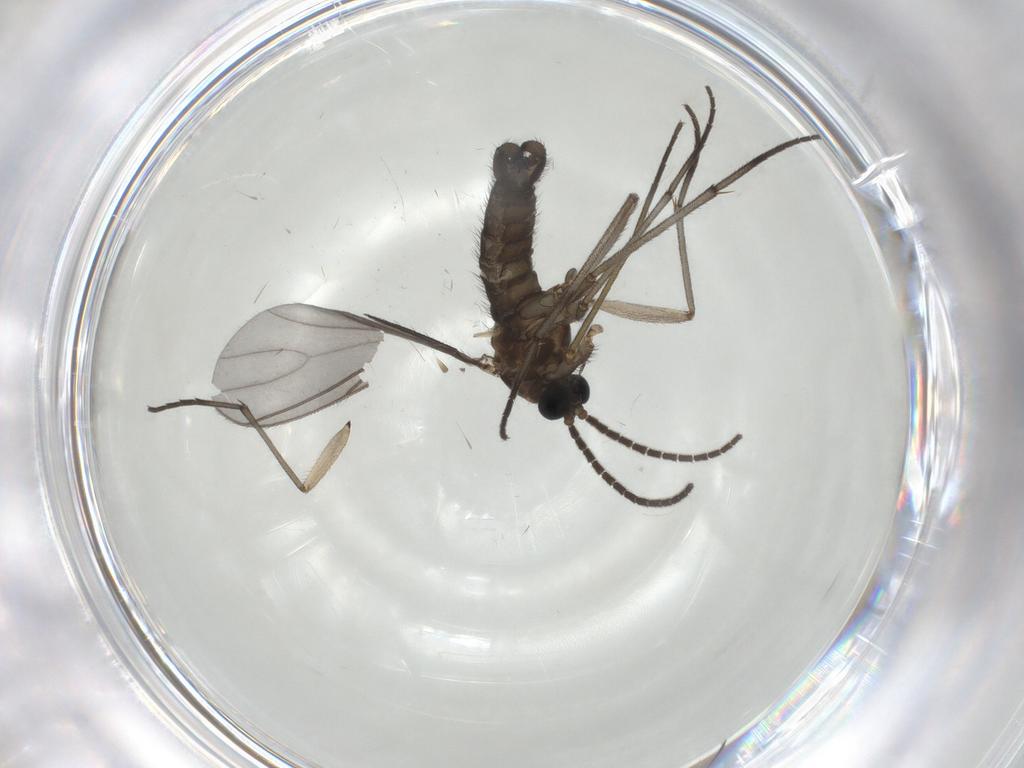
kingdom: Animalia
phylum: Arthropoda
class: Insecta
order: Diptera
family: Sciaridae
